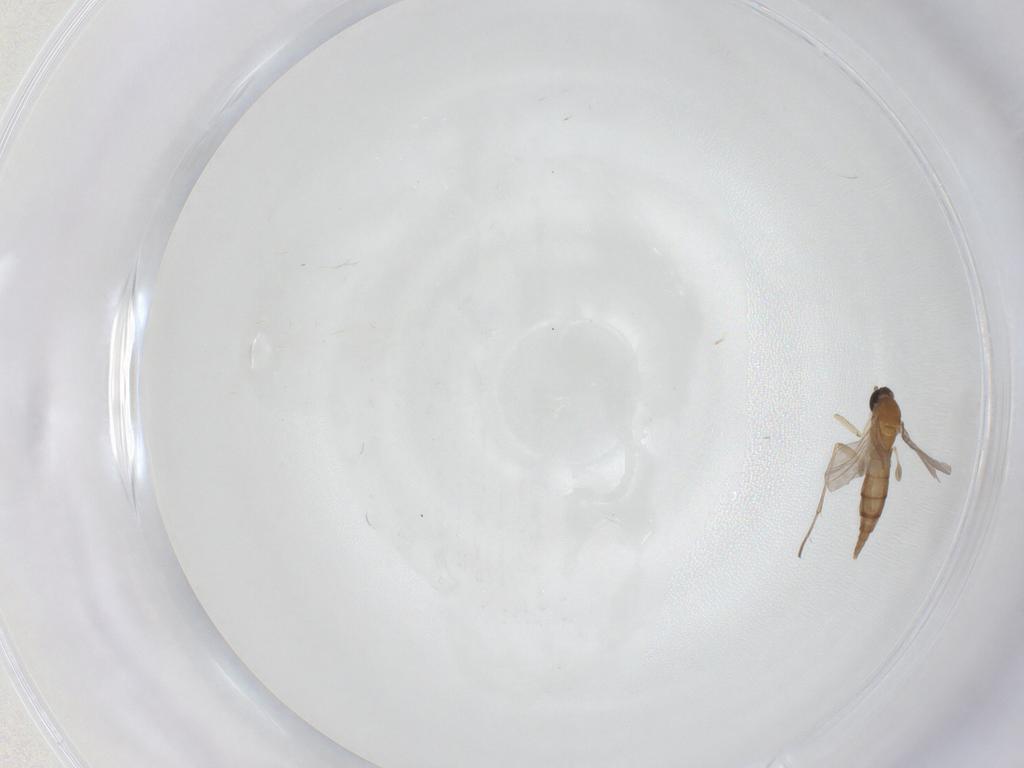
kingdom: Animalia
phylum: Arthropoda
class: Insecta
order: Diptera
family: Sciaridae
